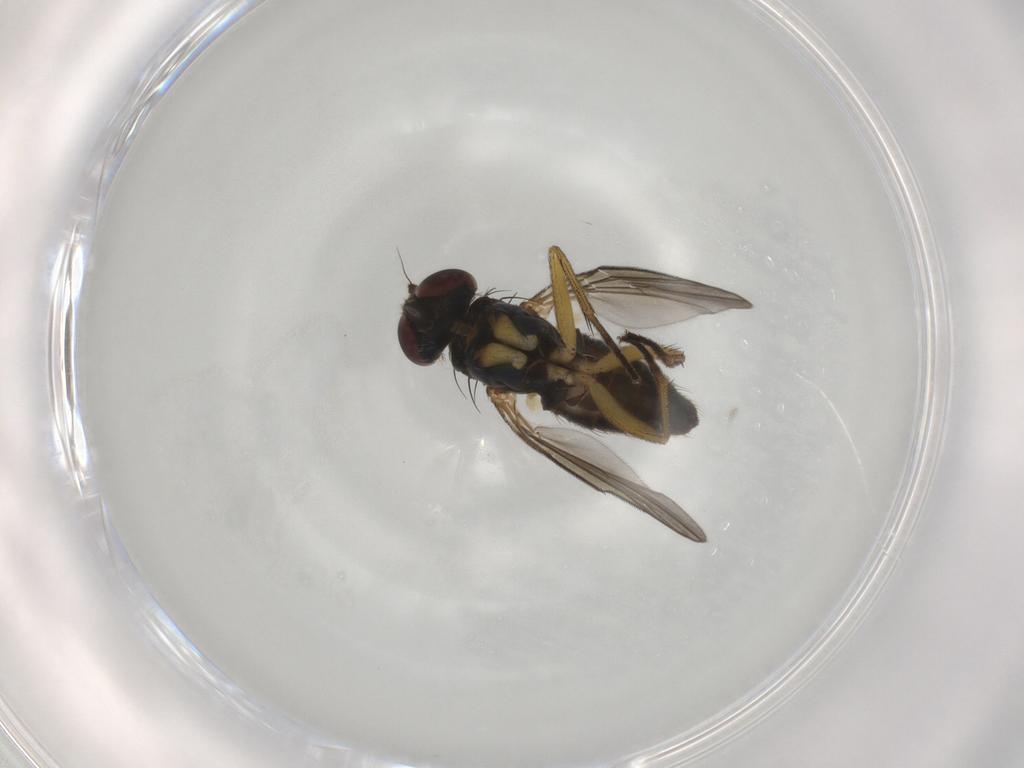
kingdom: Animalia
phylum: Arthropoda
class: Insecta
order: Diptera
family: Dolichopodidae
